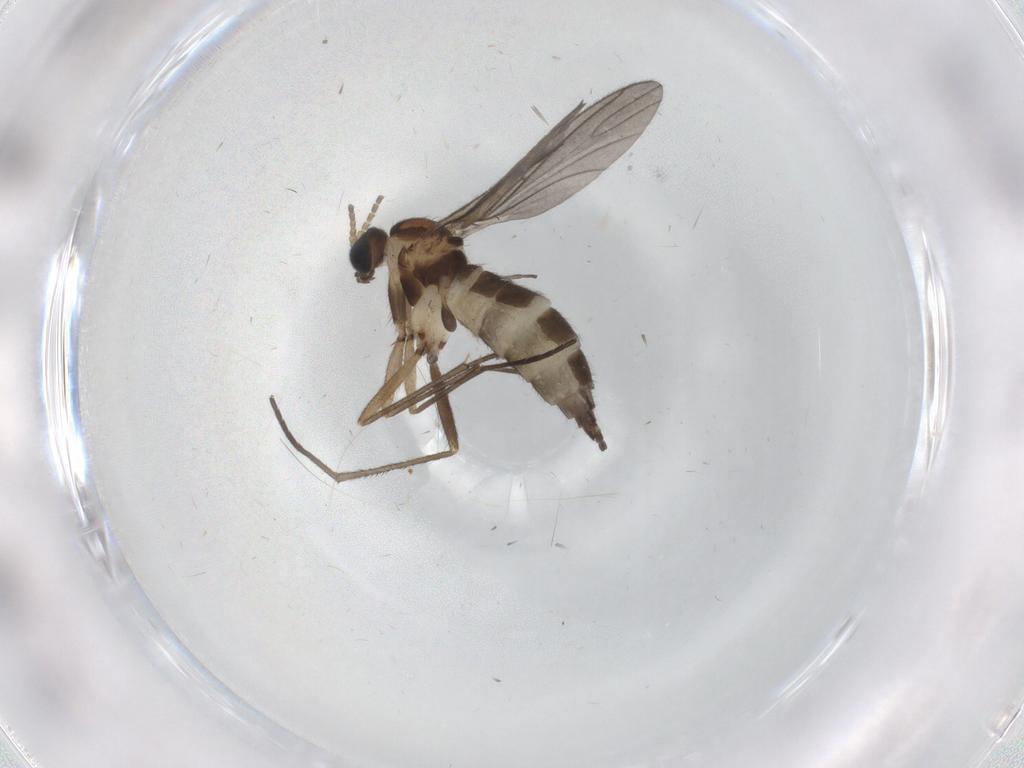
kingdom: Animalia
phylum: Arthropoda
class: Insecta
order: Diptera
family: Sciaridae
